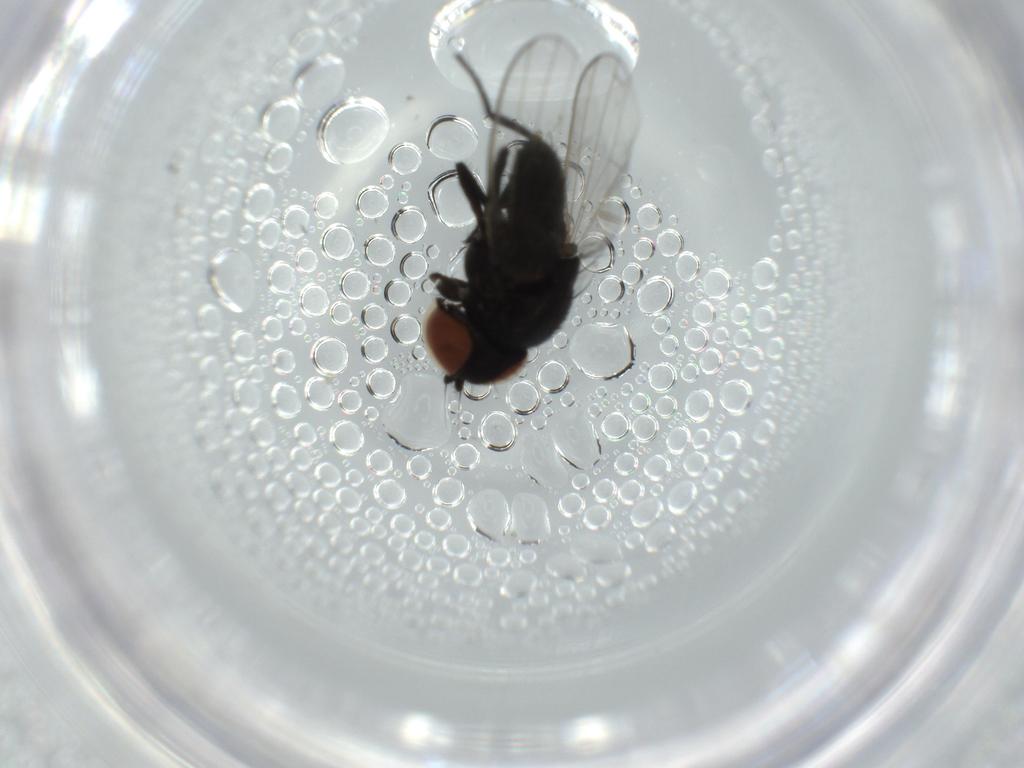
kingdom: Animalia
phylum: Arthropoda
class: Insecta
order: Diptera
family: Milichiidae
